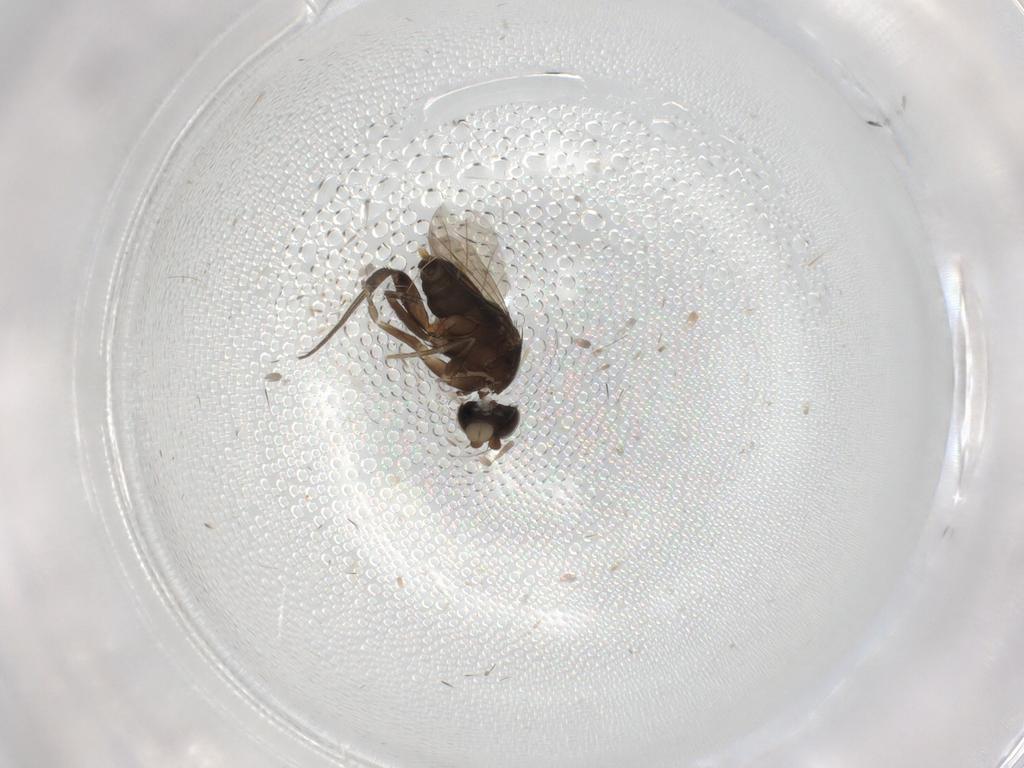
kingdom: Animalia
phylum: Arthropoda
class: Insecta
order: Diptera
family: Phoridae
